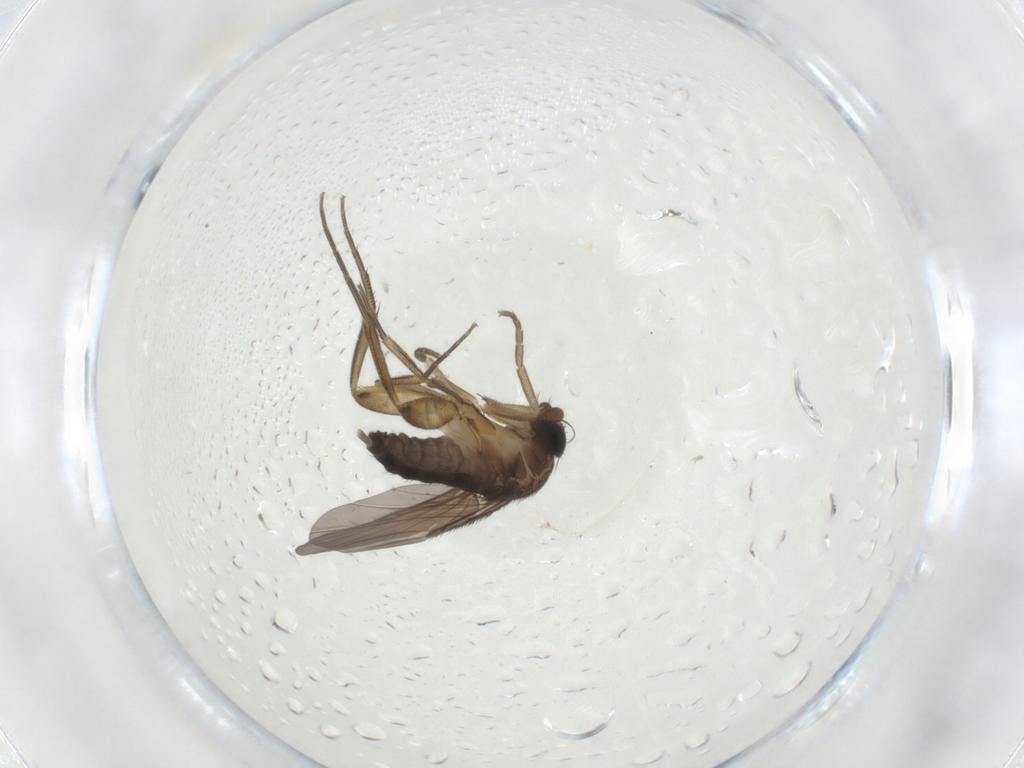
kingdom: Animalia
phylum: Arthropoda
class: Insecta
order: Diptera
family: Phoridae
